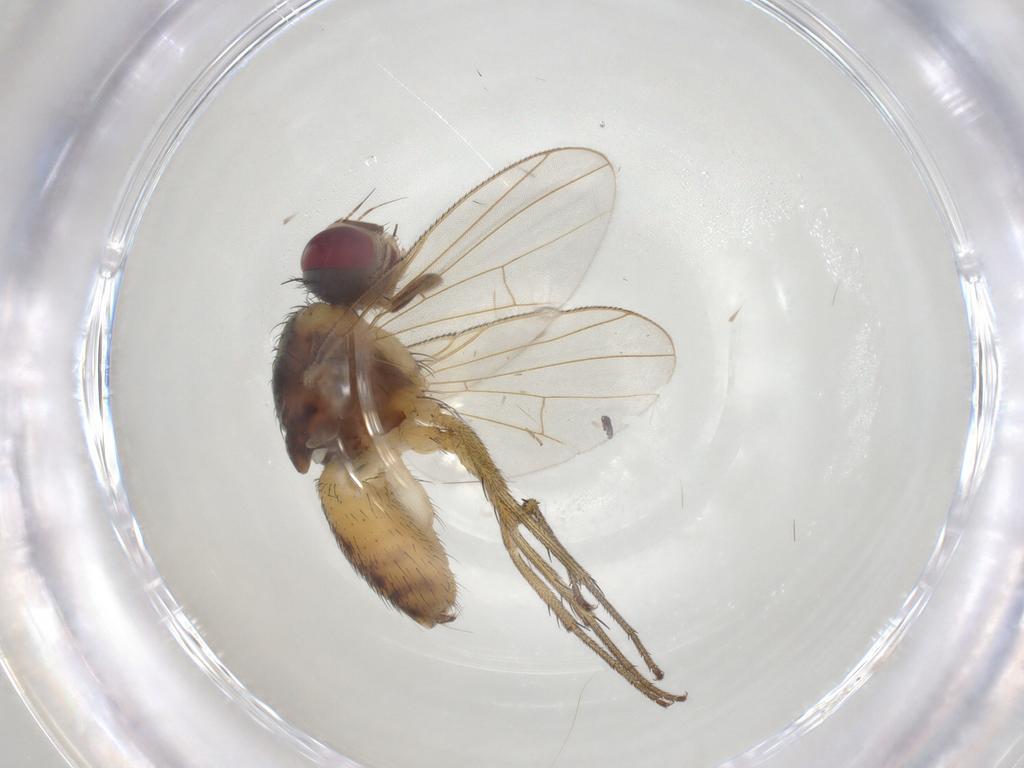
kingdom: Animalia
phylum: Arthropoda
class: Insecta
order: Diptera
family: Muscidae
